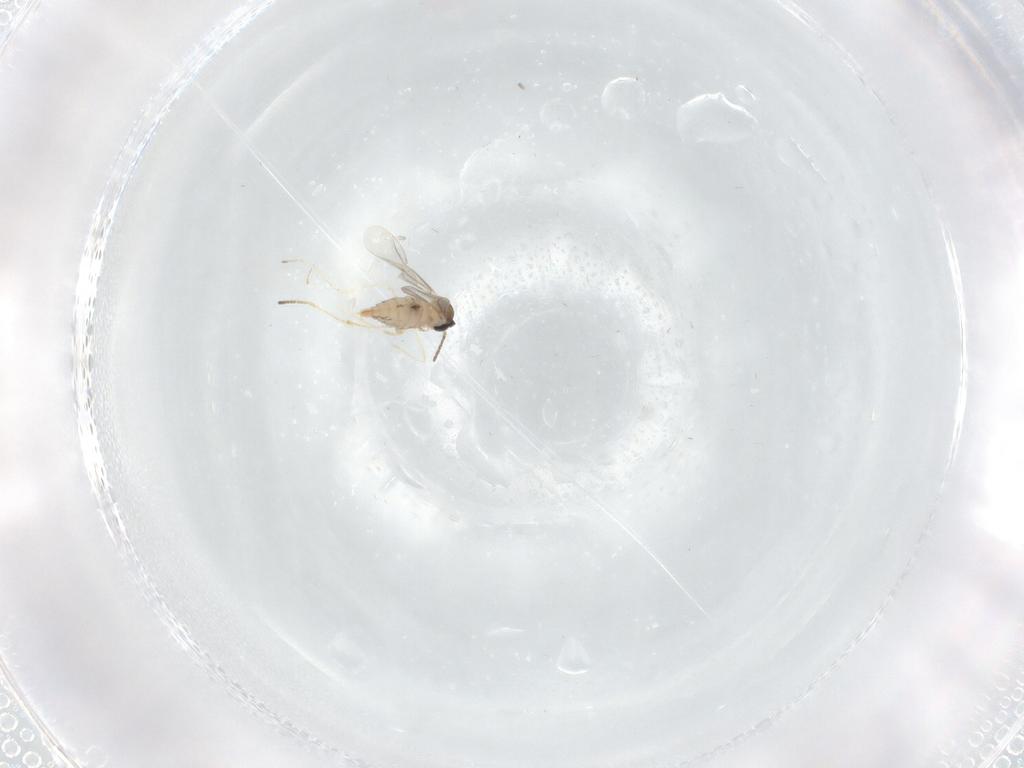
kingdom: Animalia
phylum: Arthropoda
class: Insecta
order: Diptera
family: Cecidomyiidae
